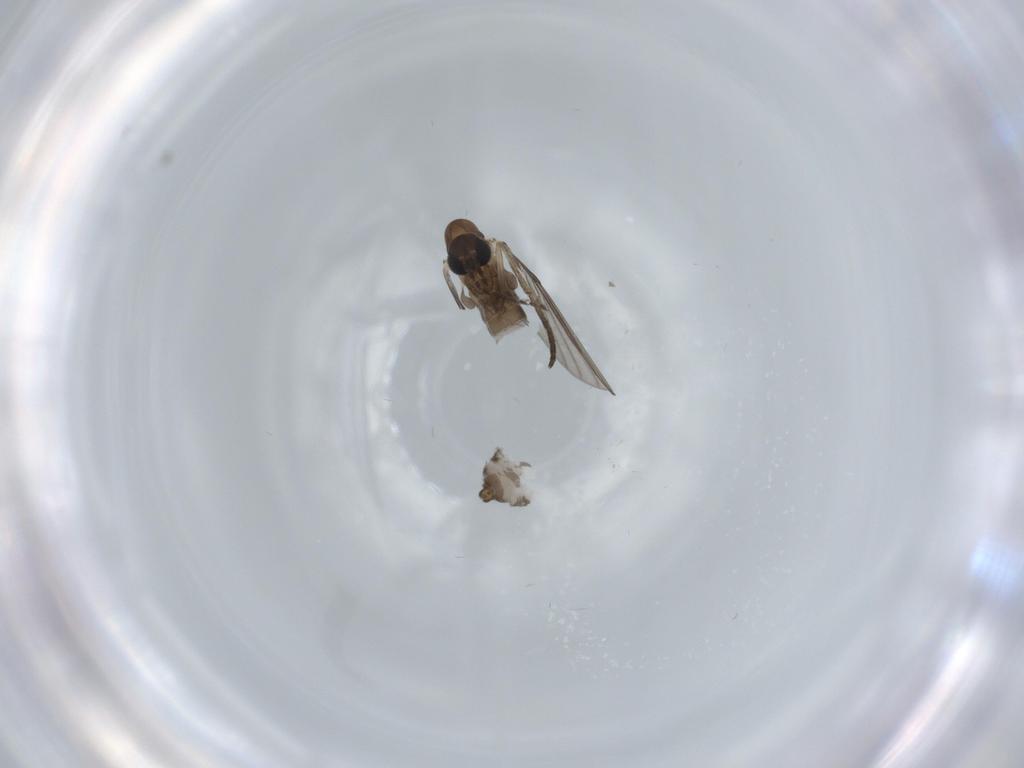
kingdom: Animalia
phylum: Arthropoda
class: Insecta
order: Diptera
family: Psychodidae
